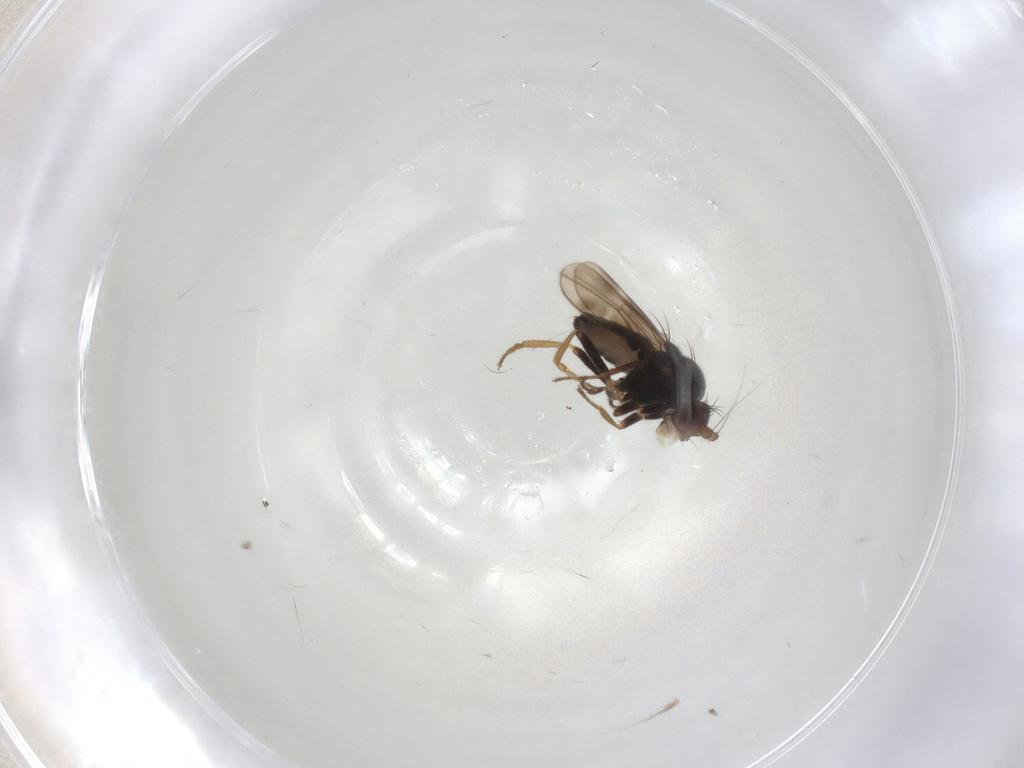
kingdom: Animalia
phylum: Arthropoda
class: Insecta
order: Diptera
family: Sphaeroceridae
